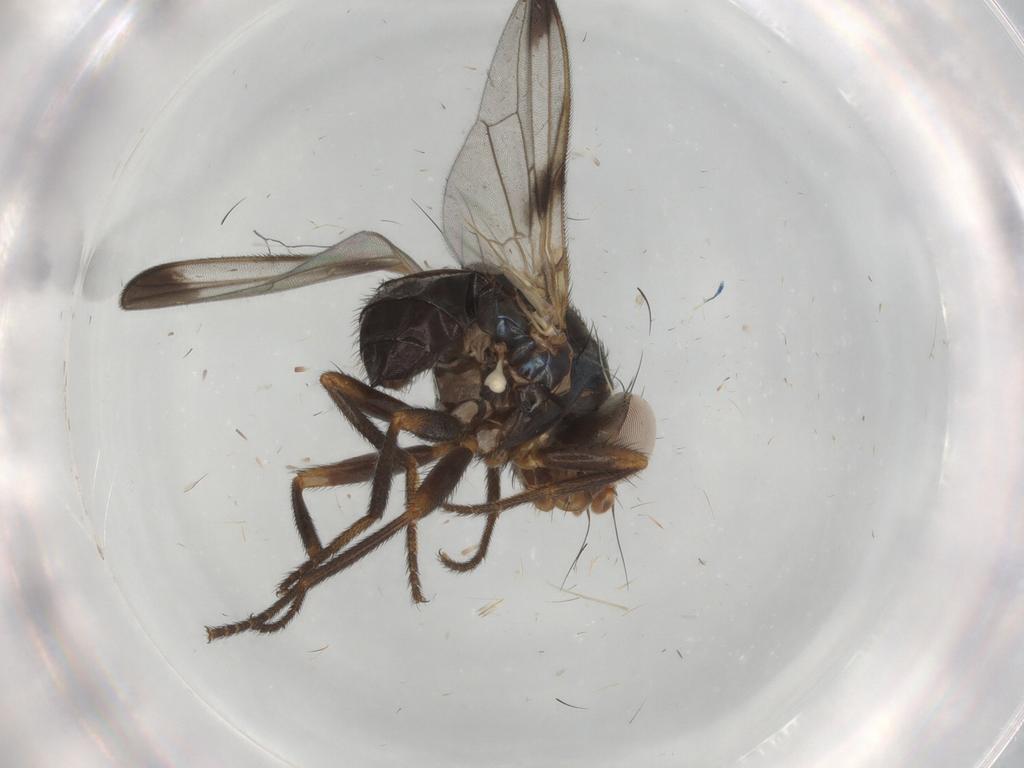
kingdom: Animalia
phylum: Arthropoda
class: Insecta
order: Diptera
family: Ulidiidae
